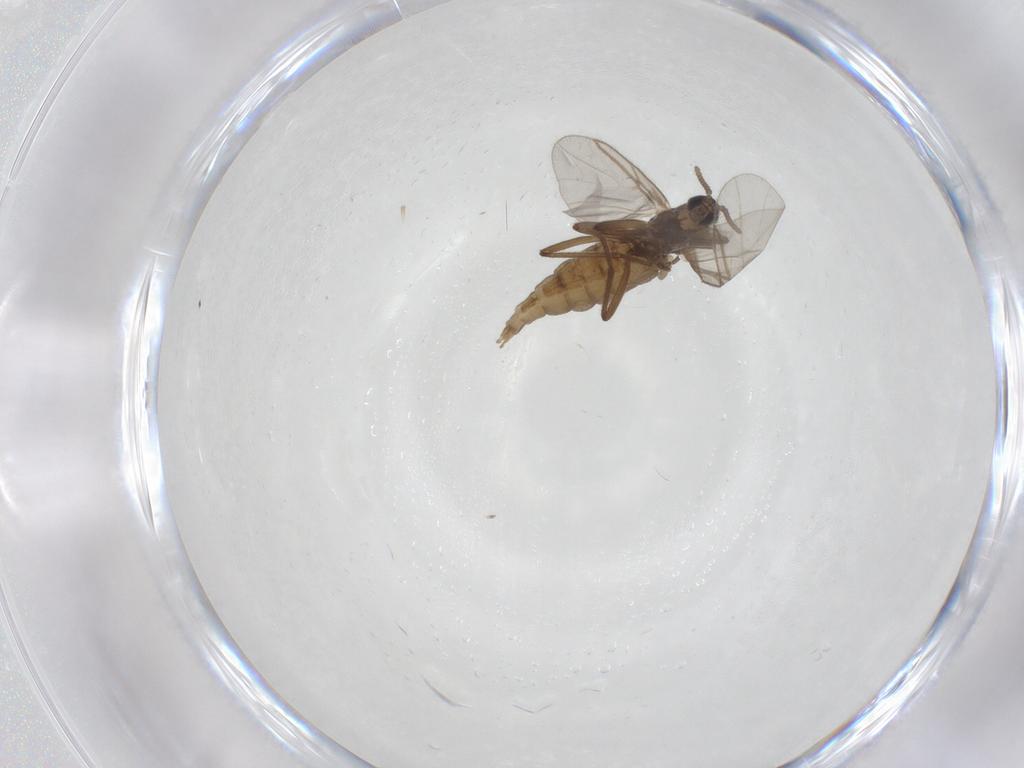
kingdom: Animalia
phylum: Arthropoda
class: Insecta
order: Diptera
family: Cecidomyiidae
